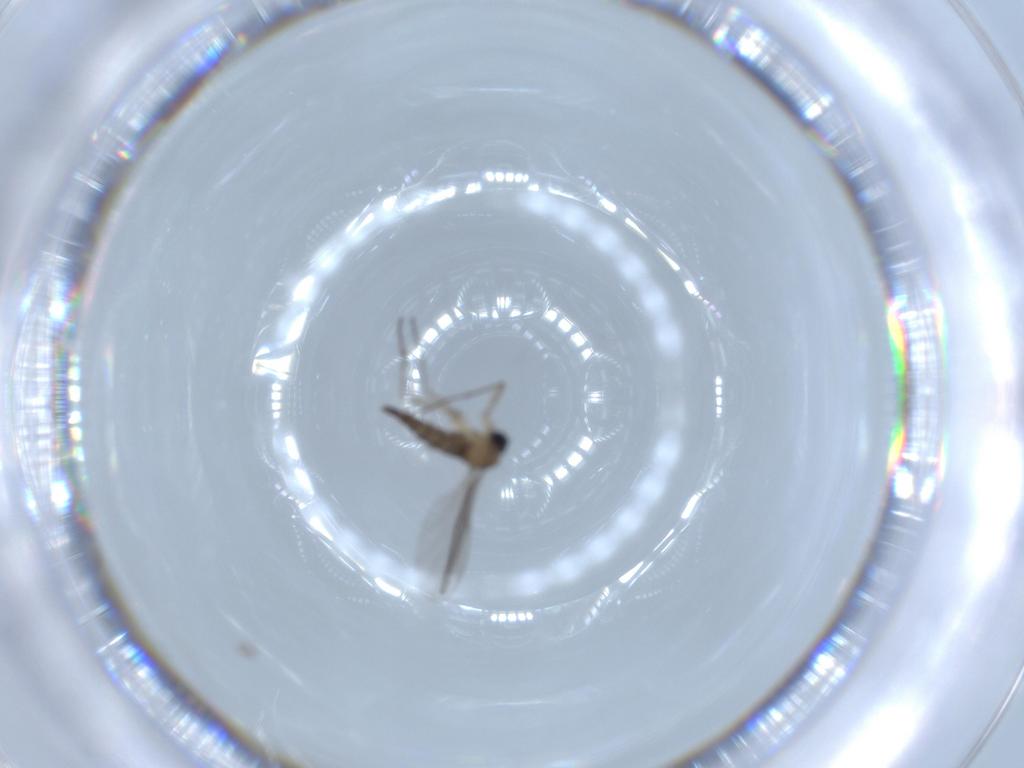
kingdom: Animalia
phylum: Arthropoda
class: Insecta
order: Diptera
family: Sciaridae
